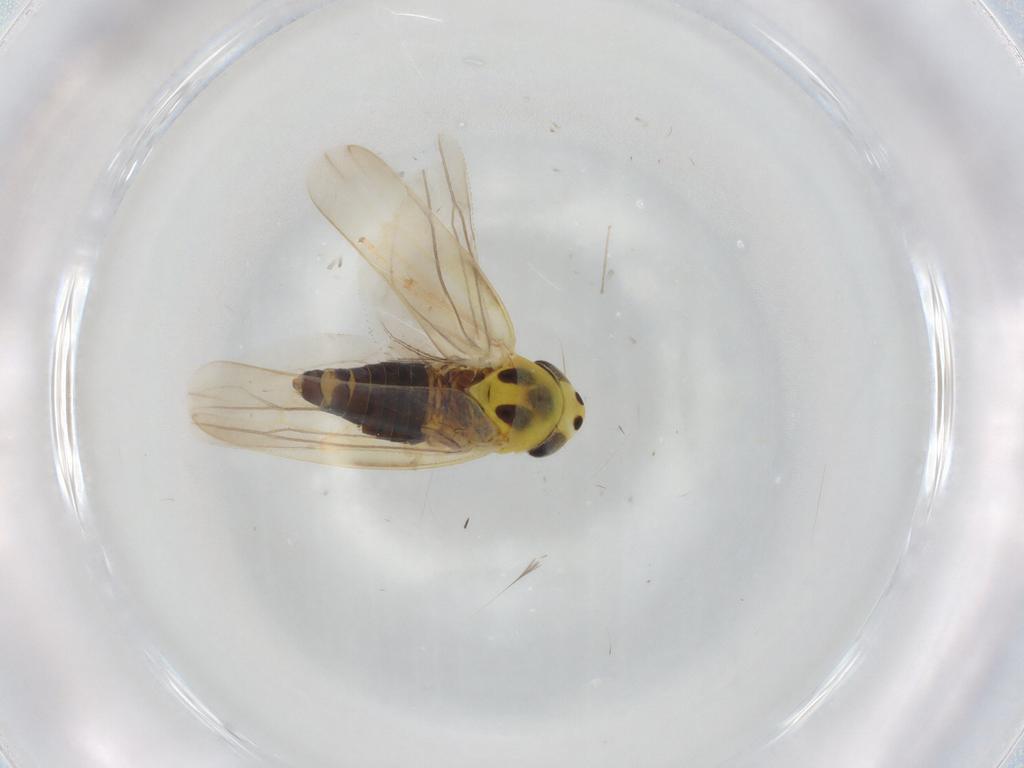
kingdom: Animalia
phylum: Arthropoda
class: Insecta
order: Hemiptera
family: Cicadellidae
